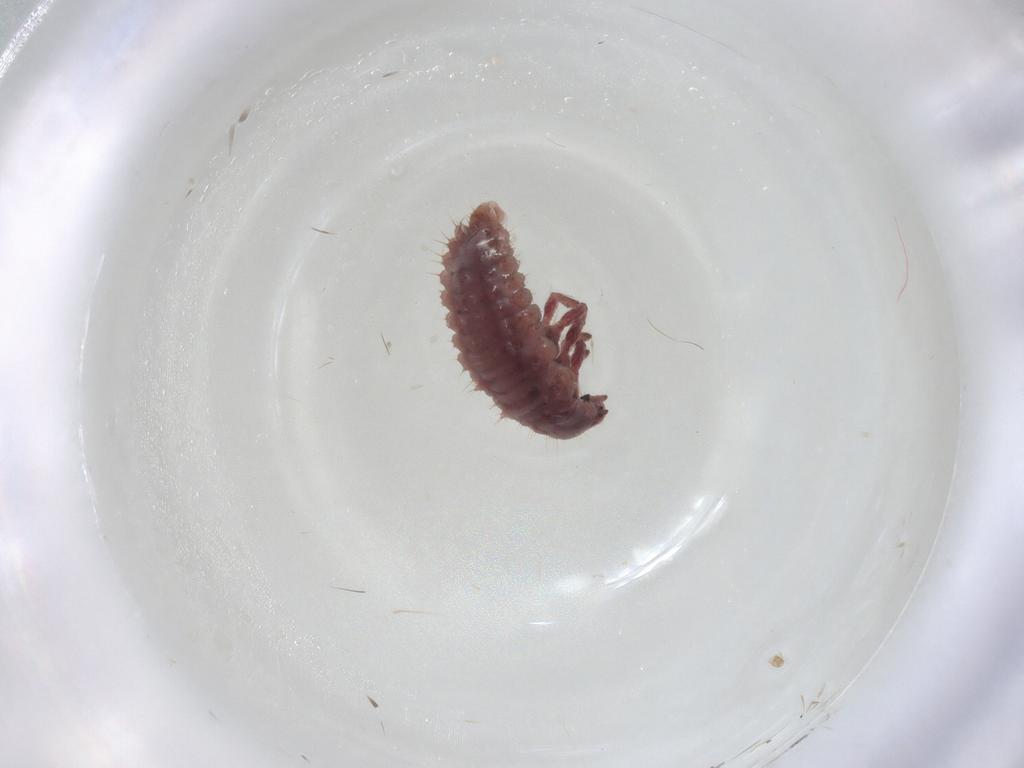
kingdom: Animalia
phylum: Arthropoda
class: Insecta
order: Coleoptera
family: Coccinellidae
